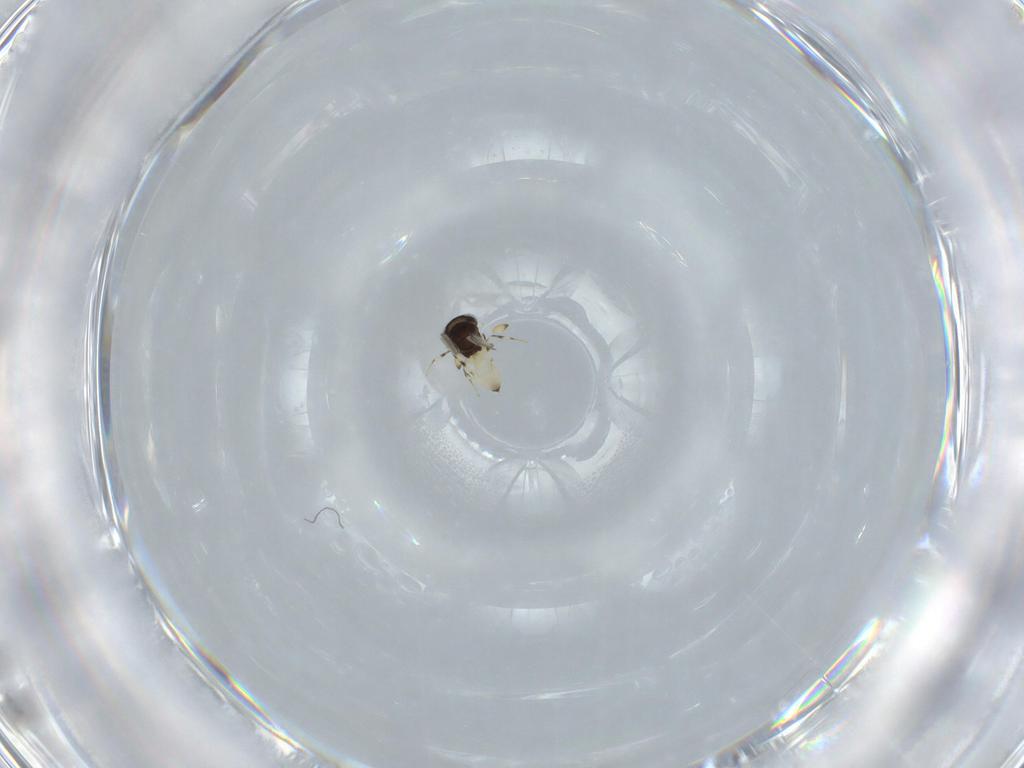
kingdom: Animalia
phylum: Arthropoda
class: Insecta
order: Hymenoptera
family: Scelionidae
